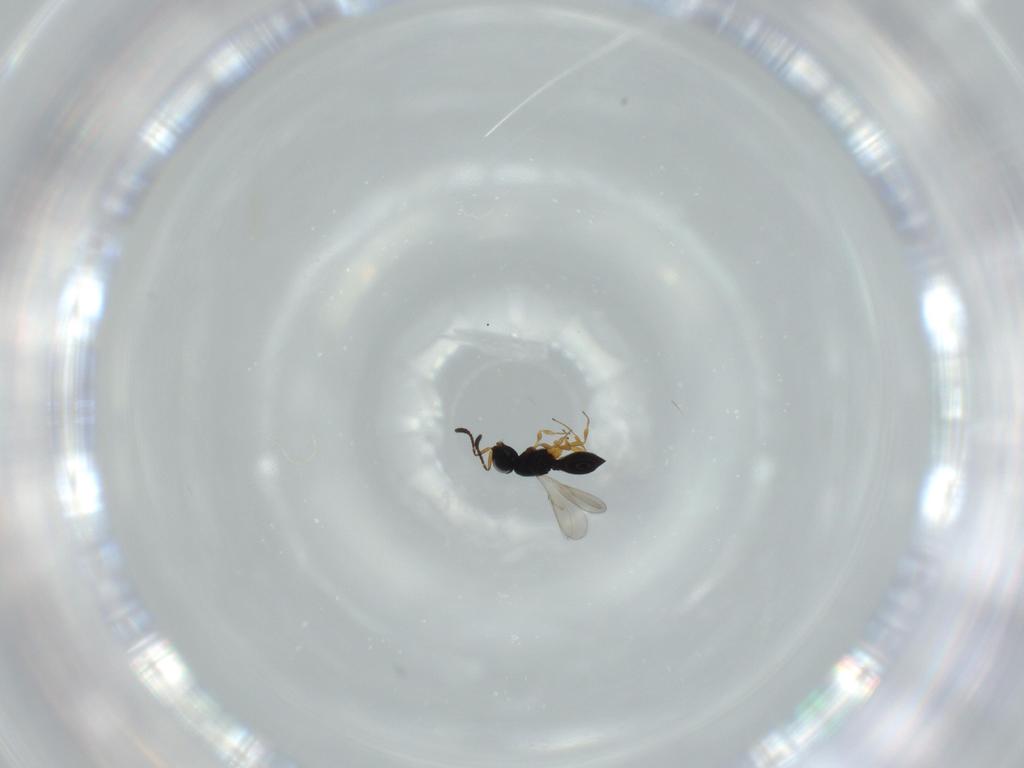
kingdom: Animalia
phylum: Arthropoda
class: Insecta
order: Hymenoptera
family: Scelionidae
